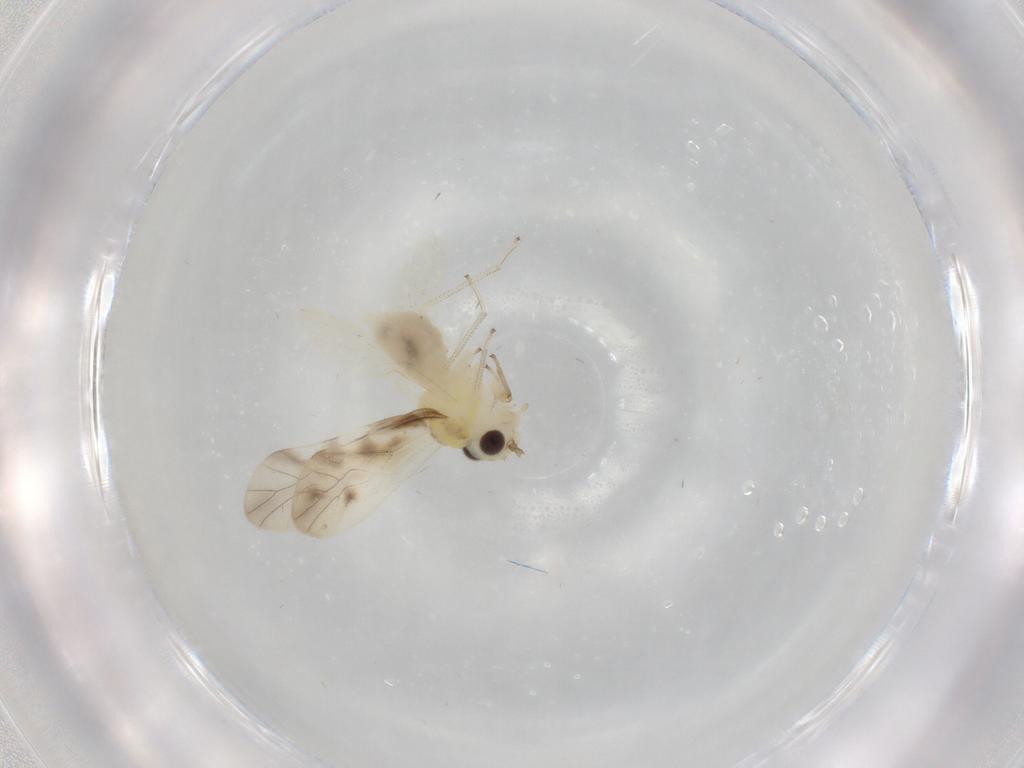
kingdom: Animalia
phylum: Arthropoda
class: Insecta
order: Psocodea
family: Caeciliusidae
